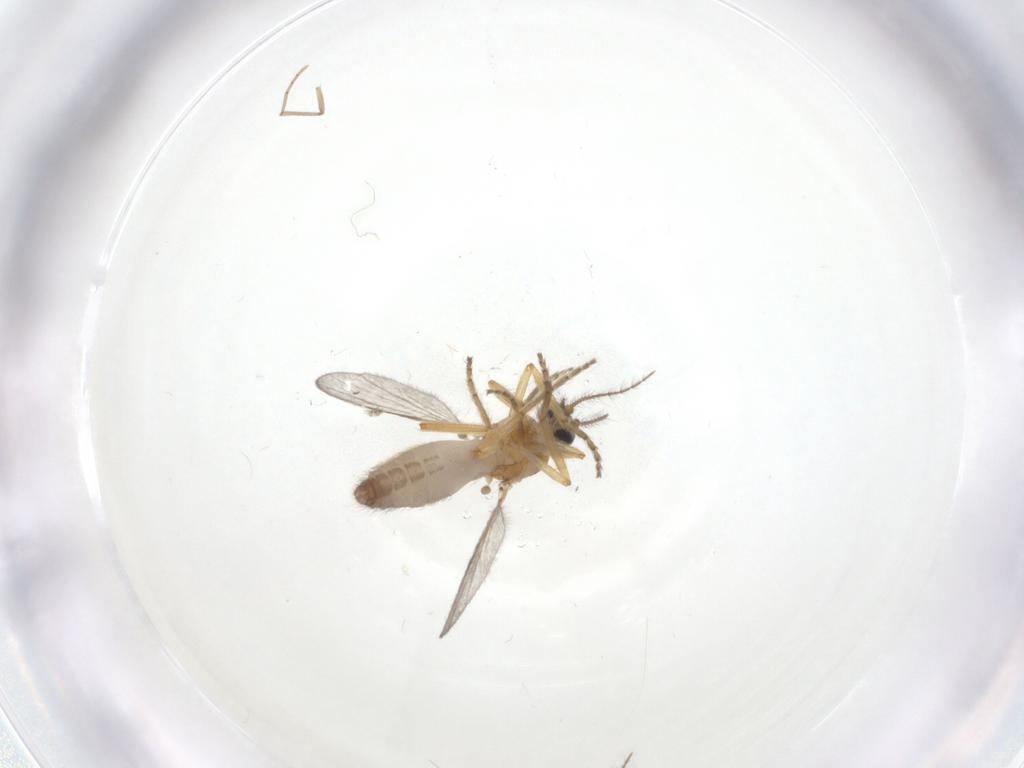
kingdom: Animalia
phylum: Arthropoda
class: Insecta
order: Diptera
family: Ceratopogonidae
